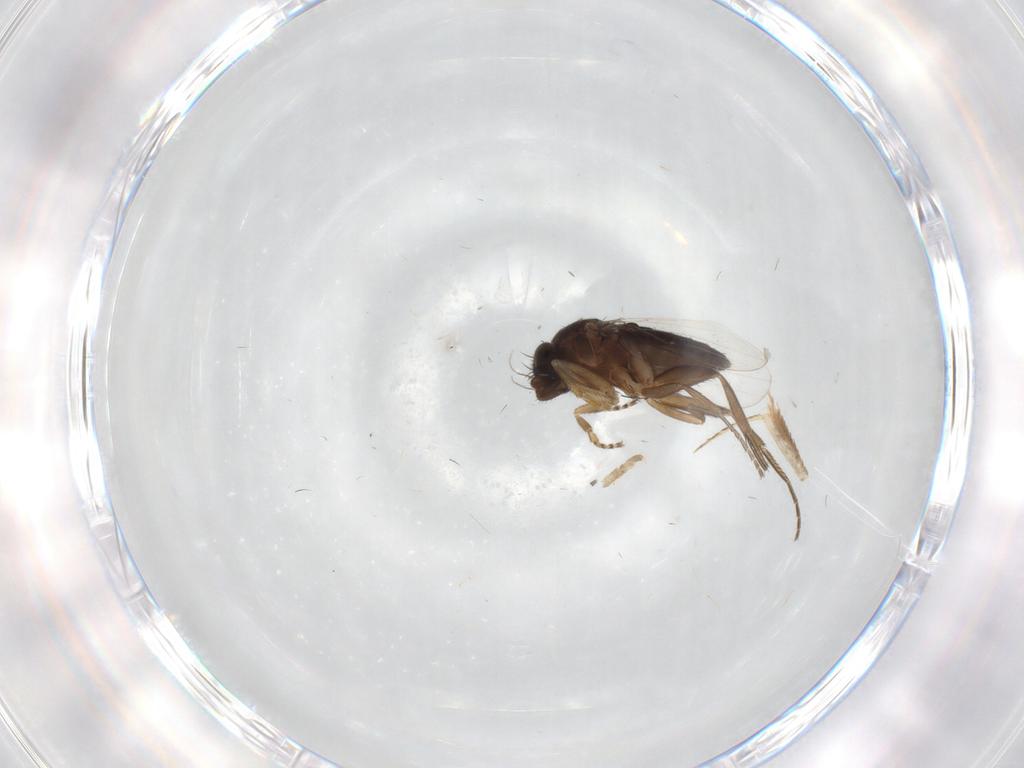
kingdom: Animalia
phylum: Arthropoda
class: Insecta
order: Diptera
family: Phoridae
